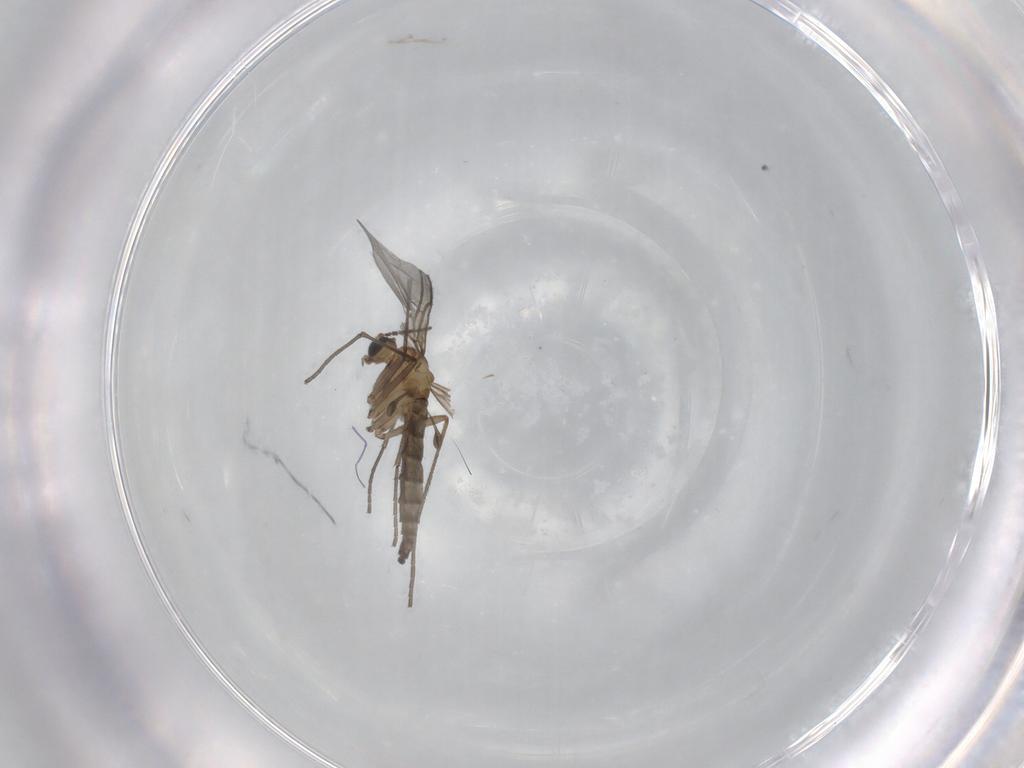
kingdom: Animalia
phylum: Arthropoda
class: Insecta
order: Diptera
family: Sciaridae
